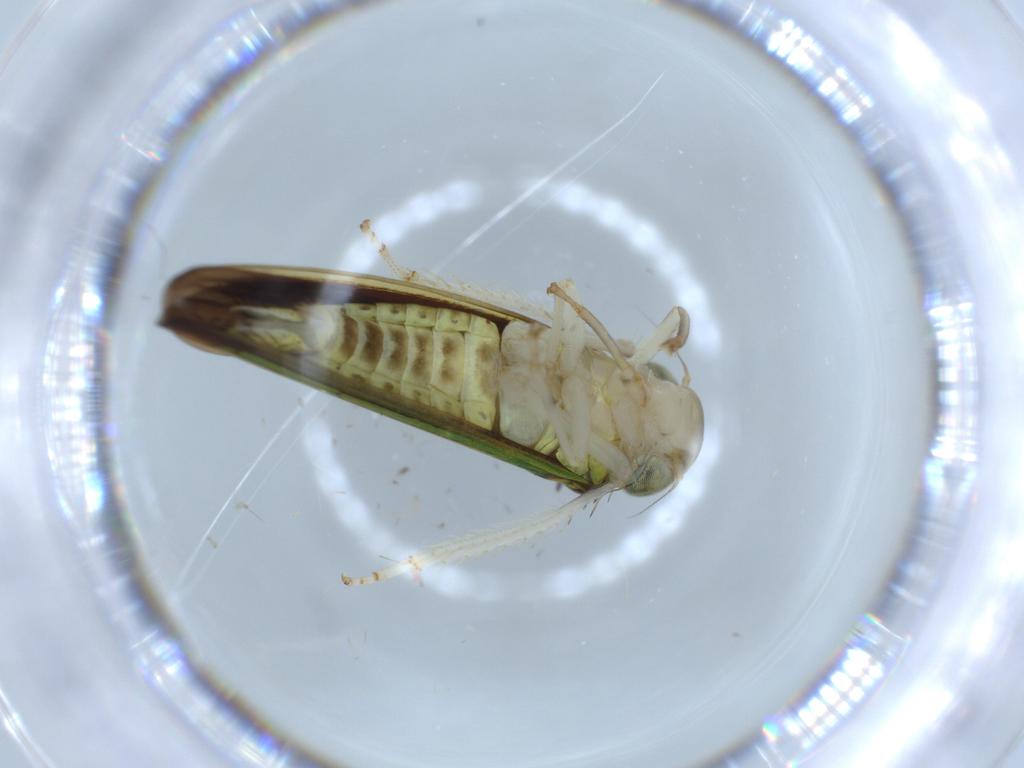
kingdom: Animalia
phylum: Arthropoda
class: Insecta
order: Hemiptera
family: Cicadellidae
